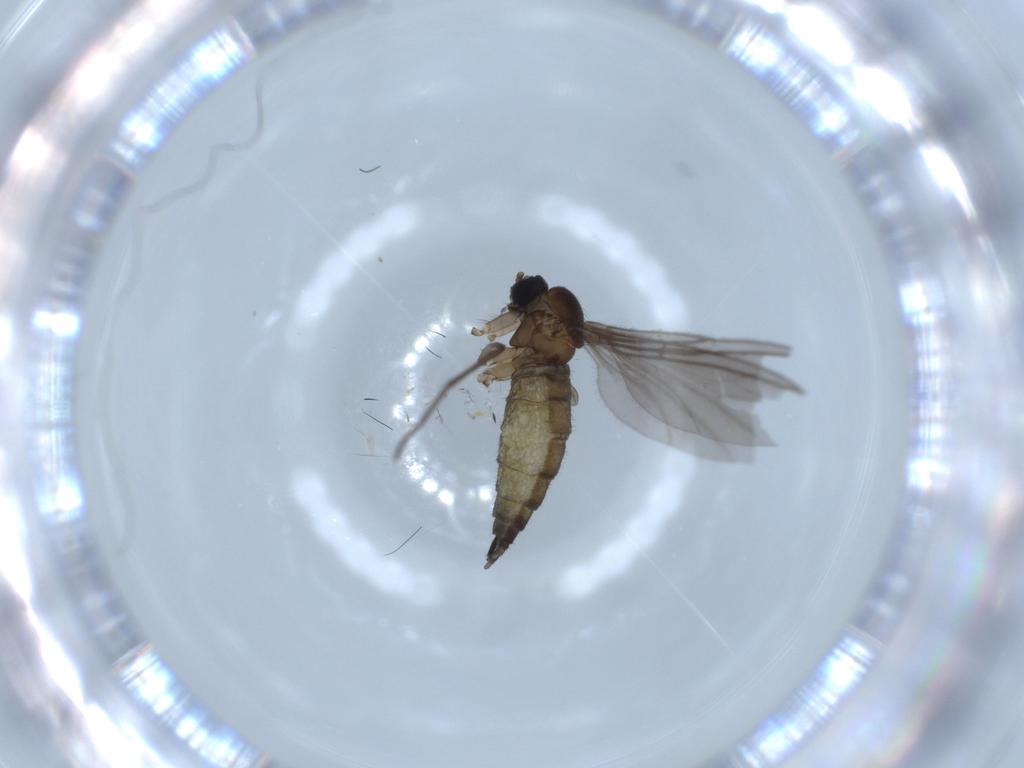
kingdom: Animalia
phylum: Arthropoda
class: Insecta
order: Diptera
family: Sciaridae
